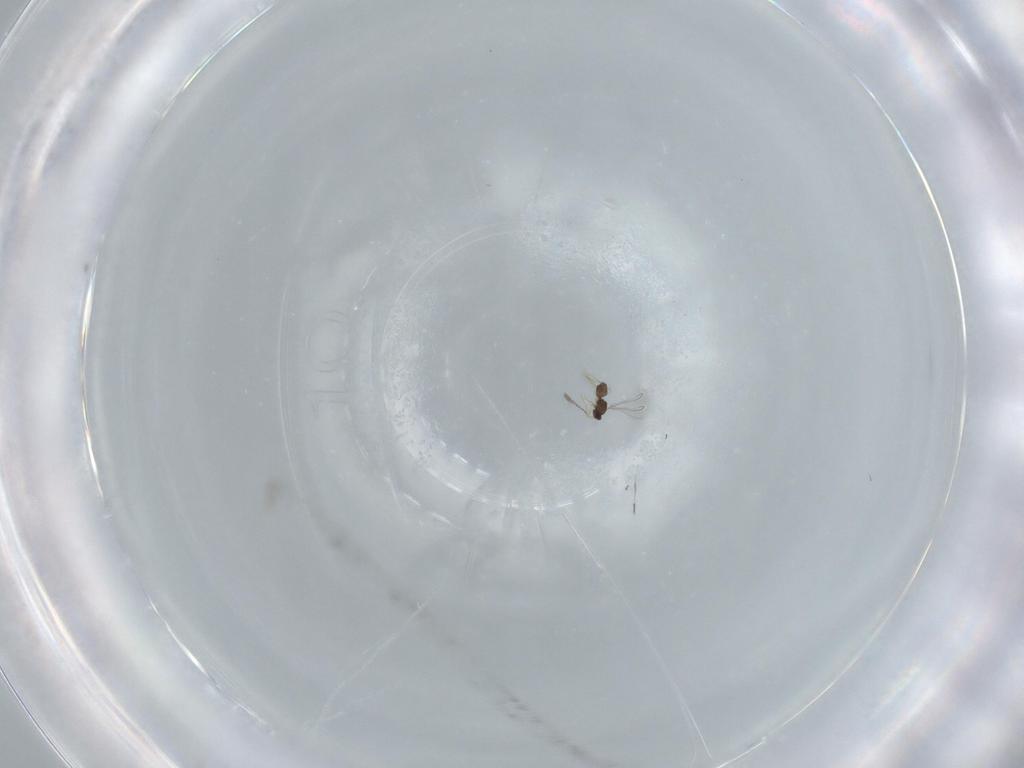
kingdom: Animalia
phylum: Arthropoda
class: Insecta
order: Hymenoptera
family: Mymaridae
